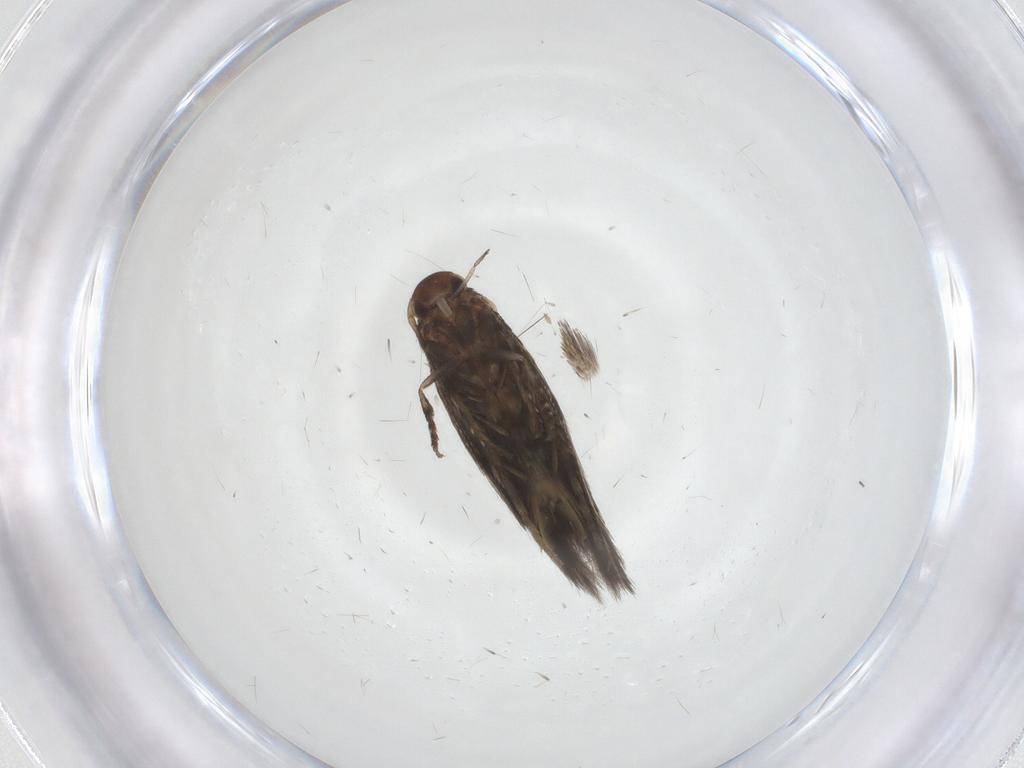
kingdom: Animalia
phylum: Arthropoda
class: Insecta
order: Lepidoptera
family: Elachistidae
